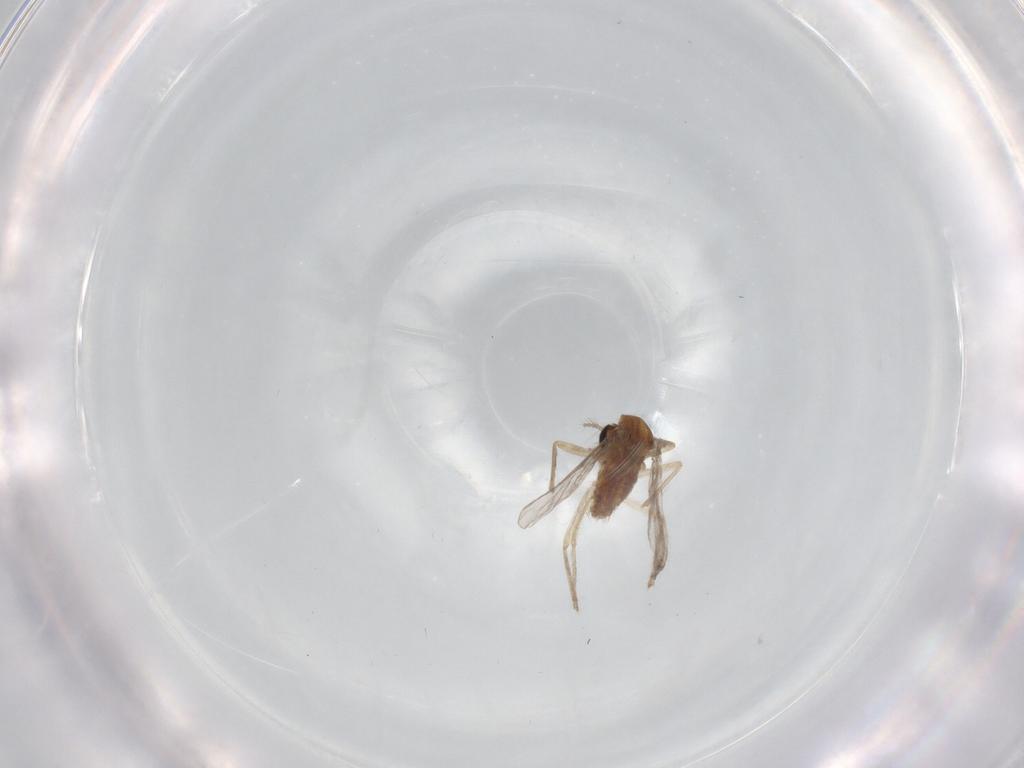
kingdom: Animalia
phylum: Arthropoda
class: Insecta
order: Diptera
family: Chironomidae
